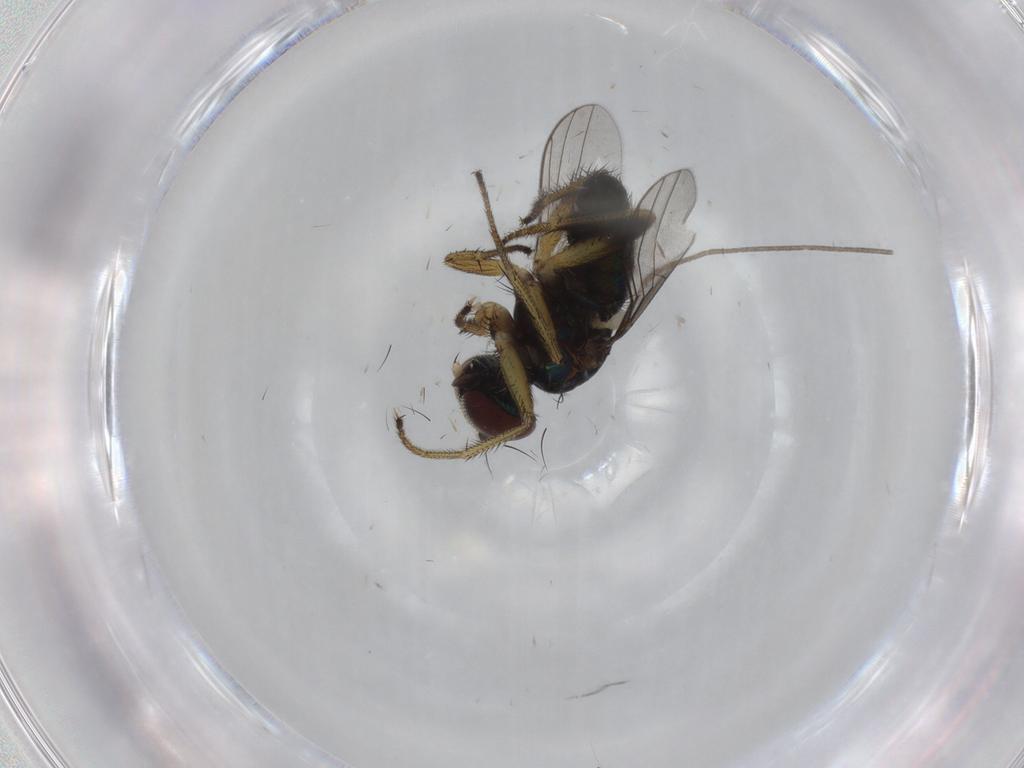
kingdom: Animalia
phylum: Arthropoda
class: Insecta
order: Diptera
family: Dolichopodidae
